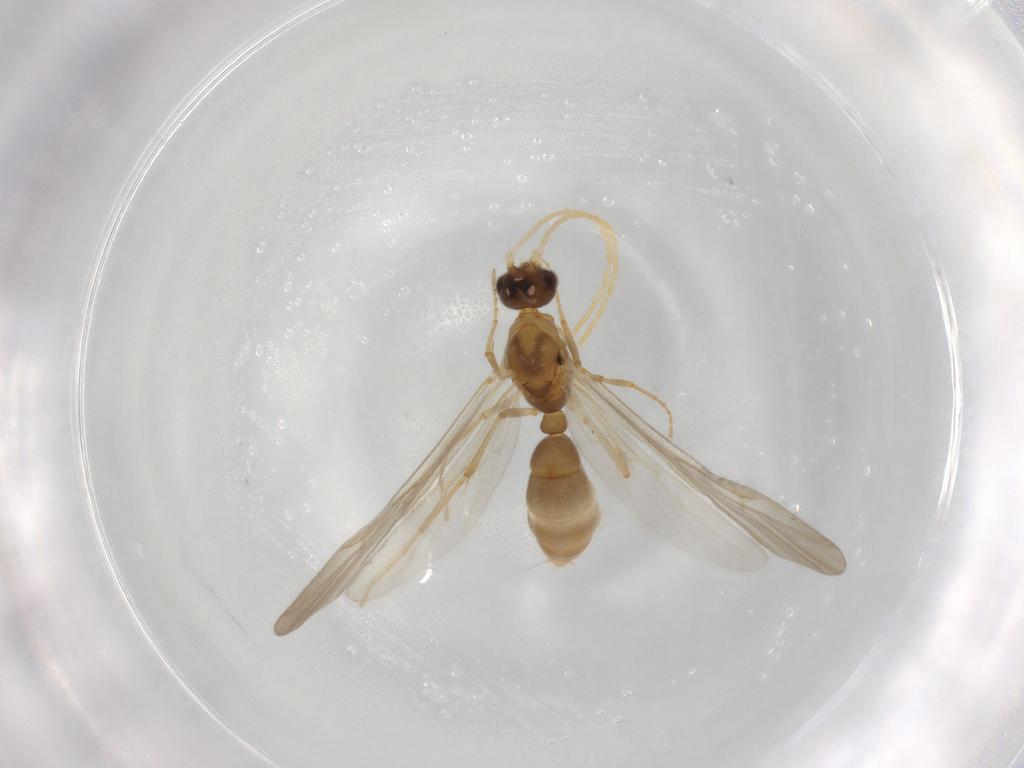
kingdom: Animalia
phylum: Arthropoda
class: Insecta
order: Hymenoptera
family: Formicidae
